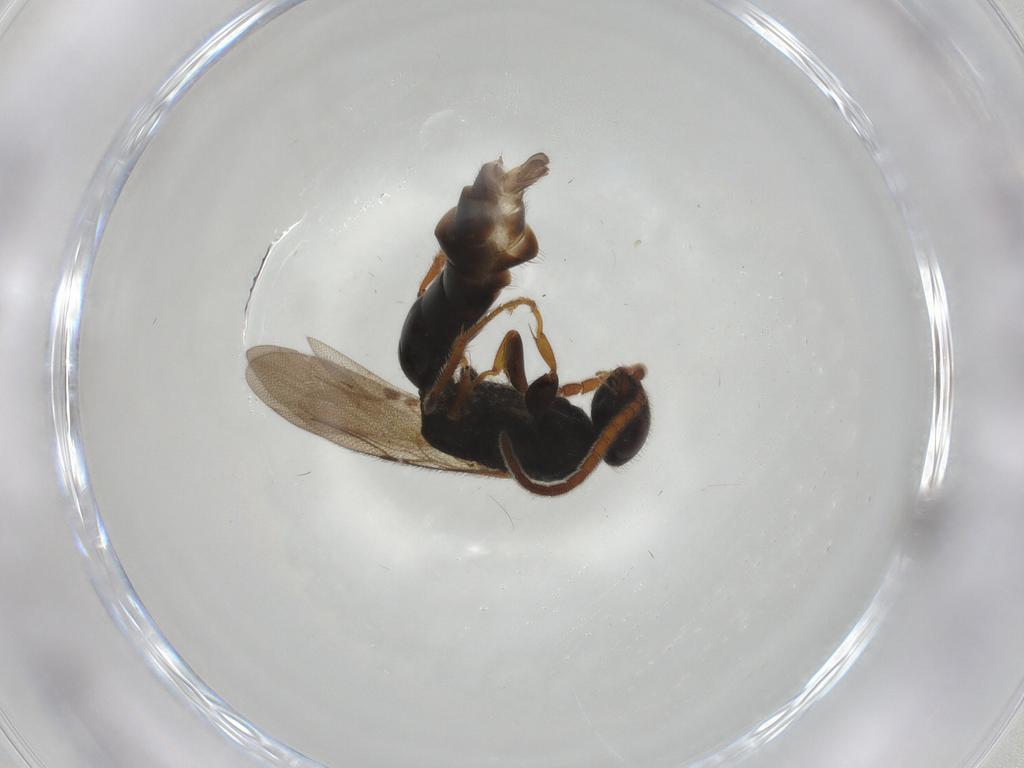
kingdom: Animalia
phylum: Arthropoda
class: Insecta
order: Hymenoptera
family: Bethylidae
